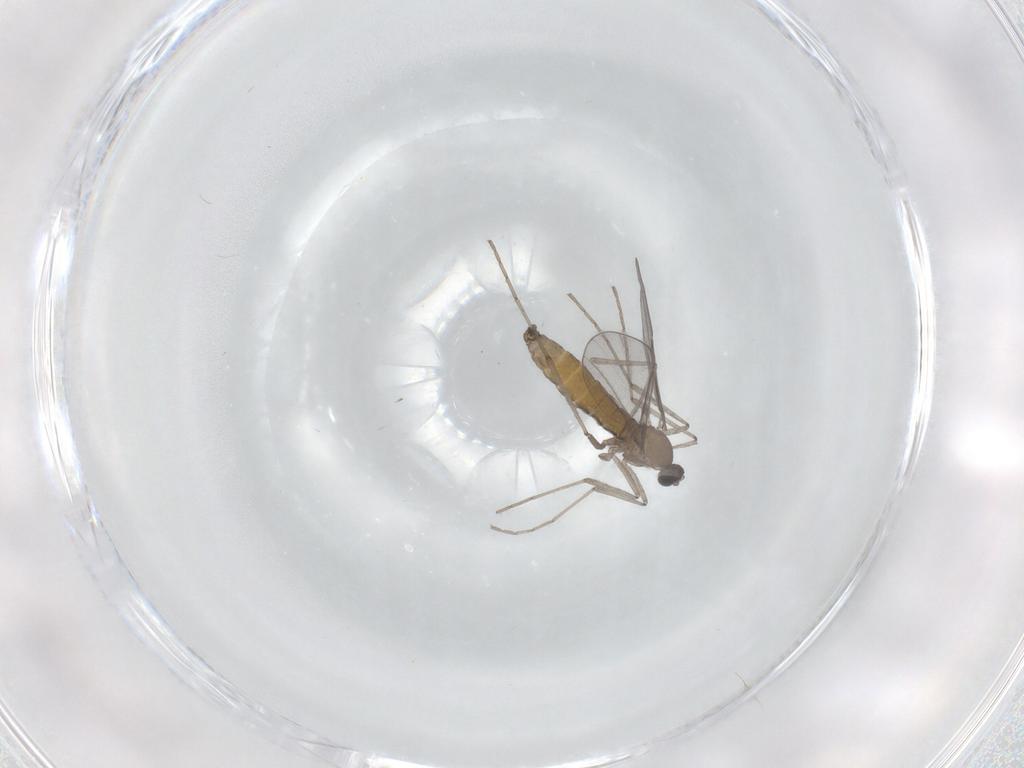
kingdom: Animalia
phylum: Arthropoda
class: Insecta
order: Diptera
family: Cecidomyiidae
